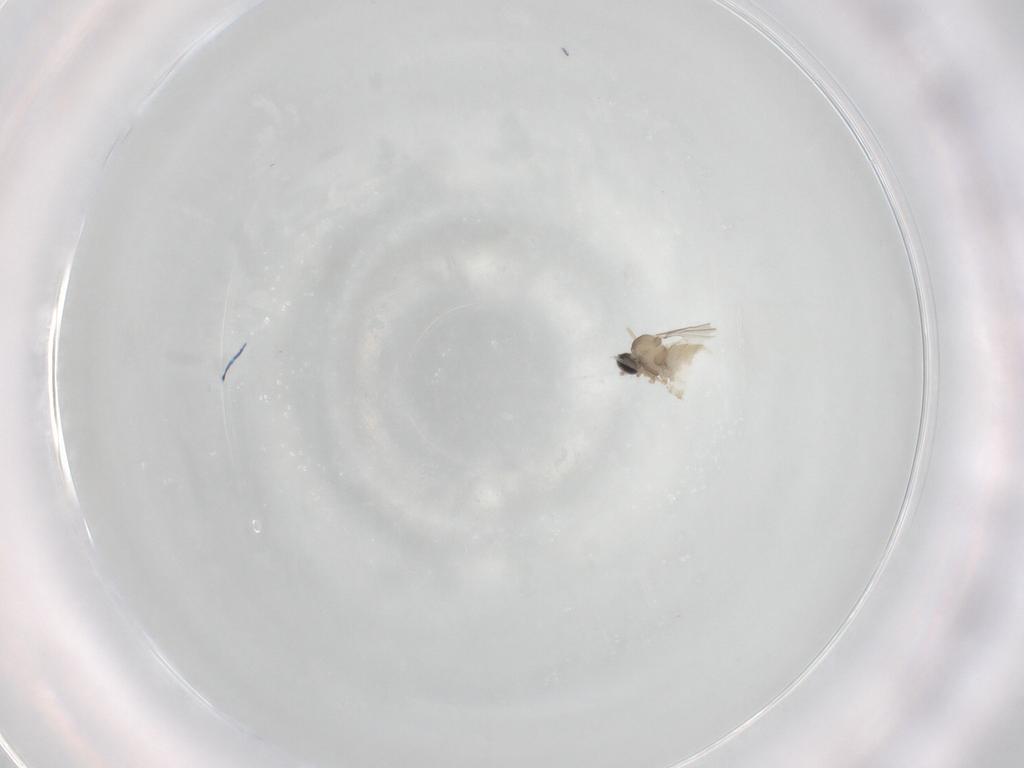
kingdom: Animalia
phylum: Arthropoda
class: Insecta
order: Diptera
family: Cecidomyiidae
